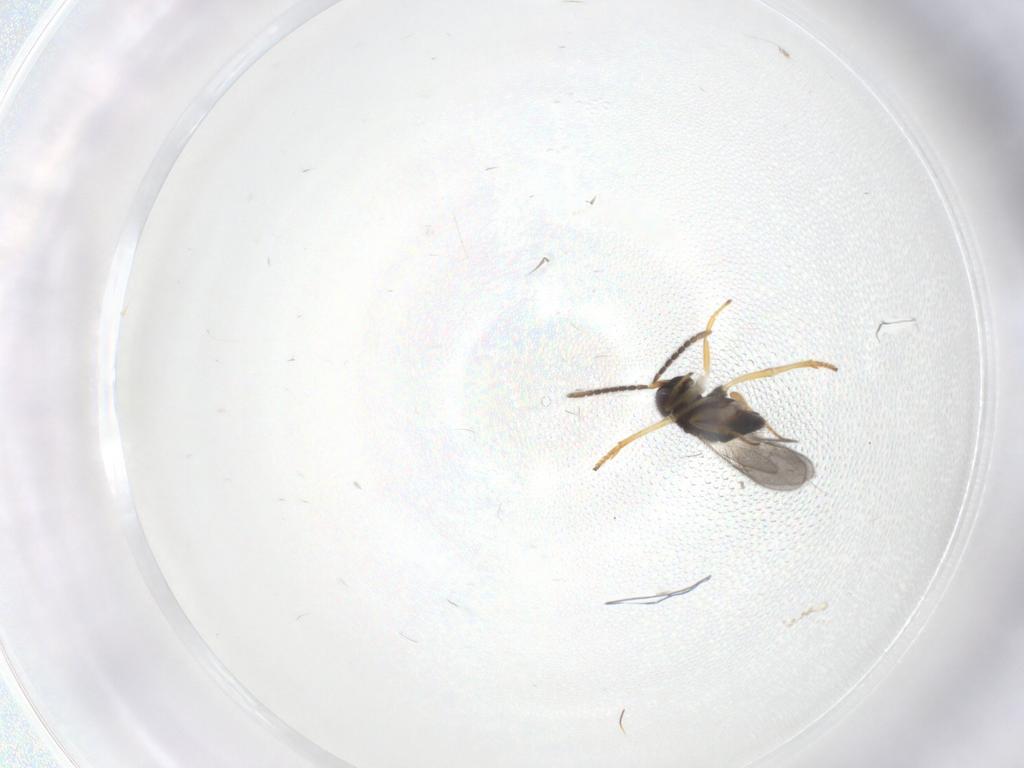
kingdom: Animalia
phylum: Arthropoda
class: Insecta
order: Hymenoptera
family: Encyrtidae
